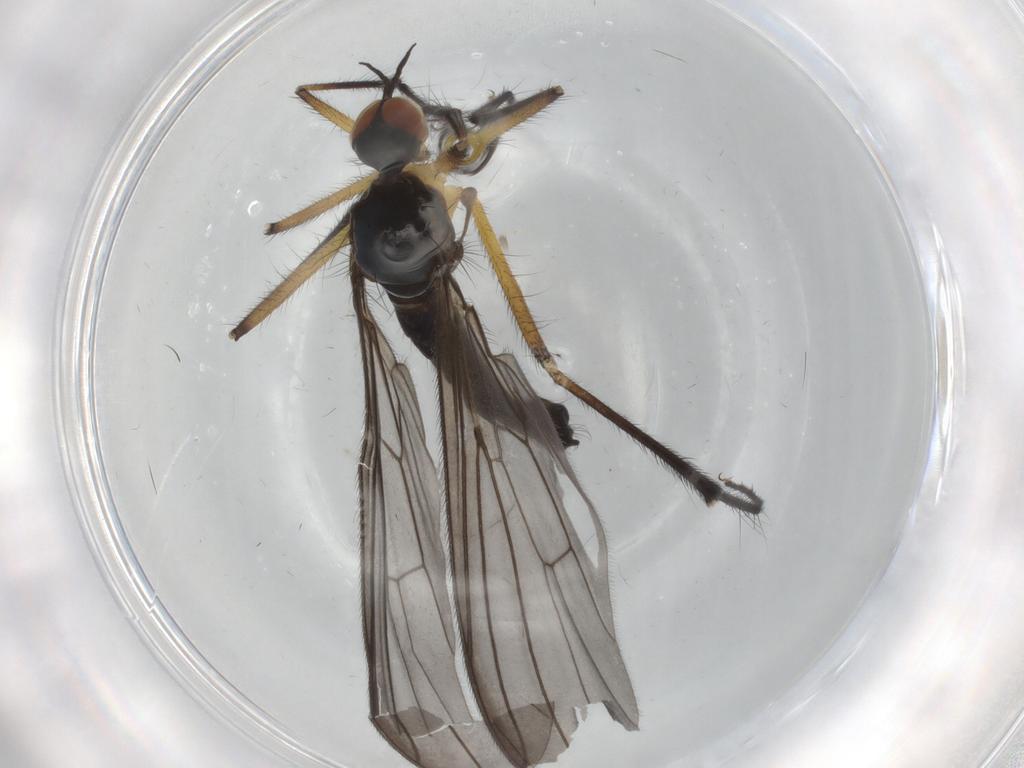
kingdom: Animalia
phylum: Arthropoda
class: Insecta
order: Diptera
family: Empididae
